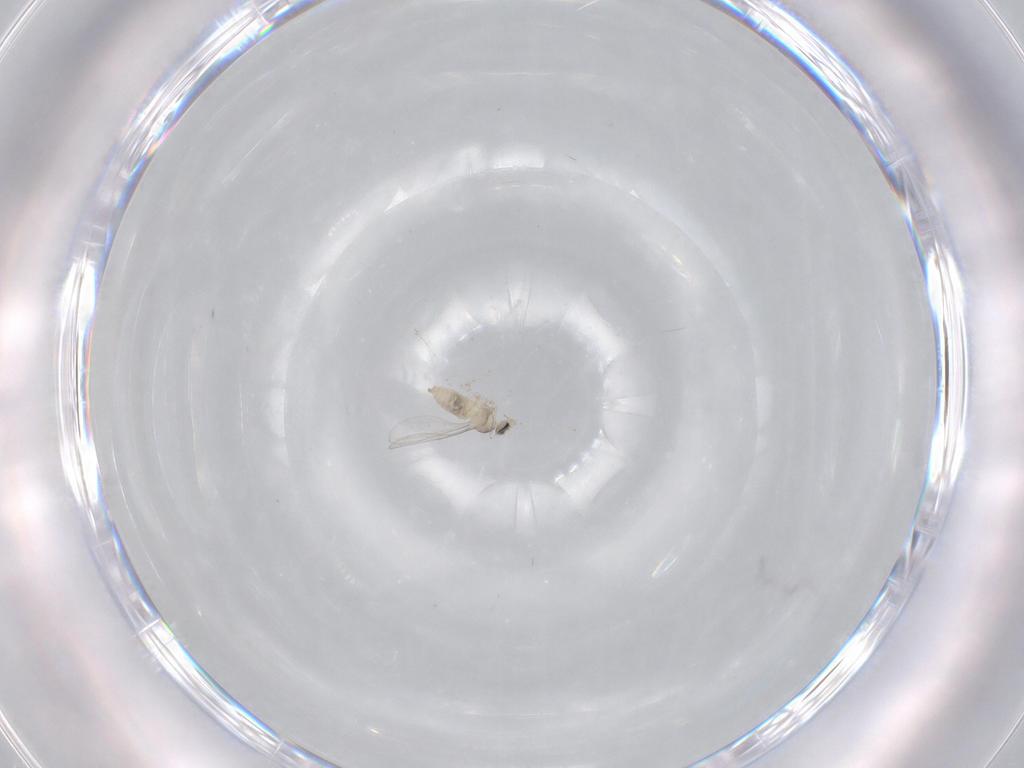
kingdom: Animalia
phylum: Arthropoda
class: Insecta
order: Diptera
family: Cecidomyiidae
